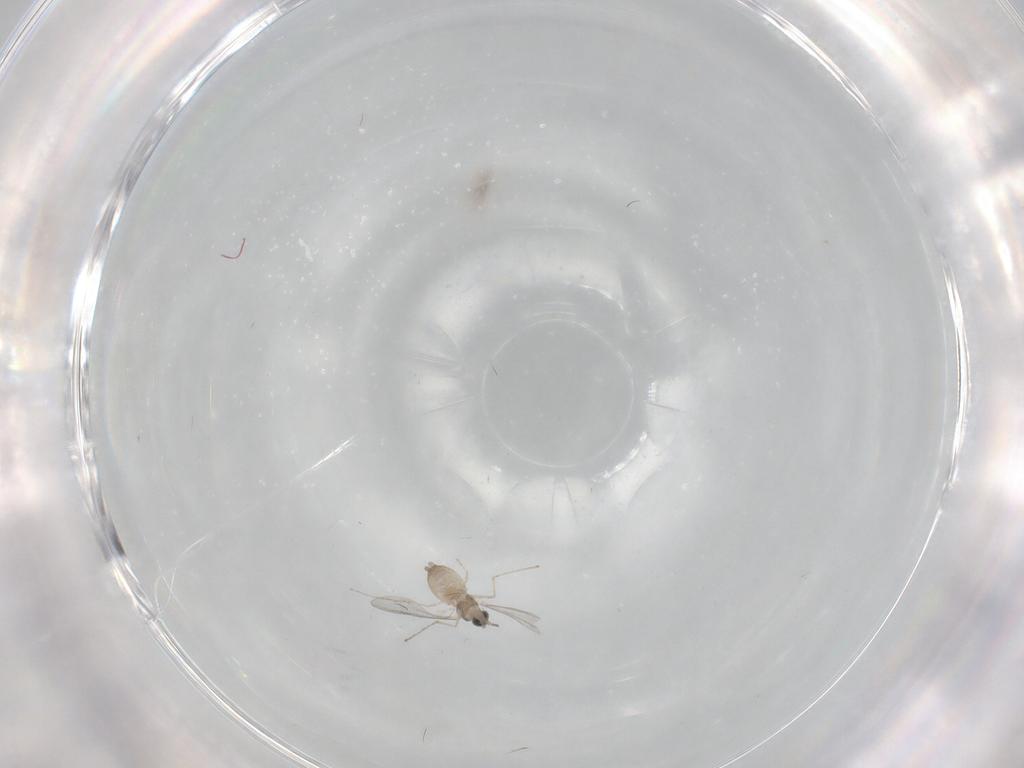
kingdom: Animalia
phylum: Arthropoda
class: Insecta
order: Diptera
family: Cecidomyiidae
